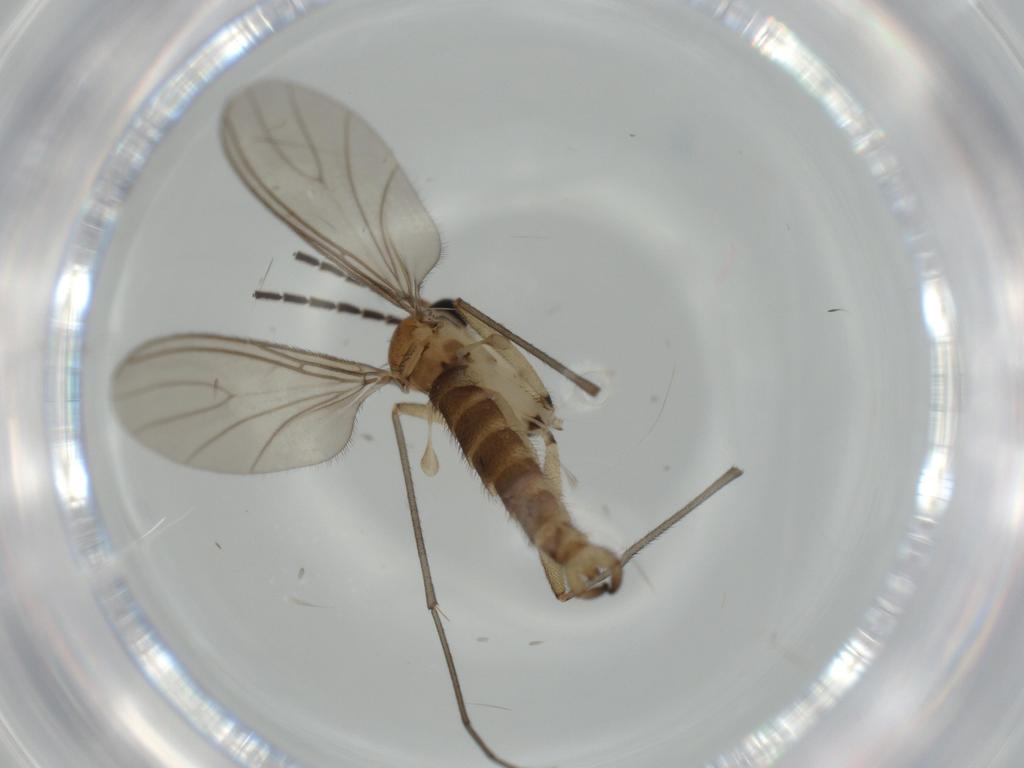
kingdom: Animalia
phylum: Arthropoda
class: Insecta
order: Diptera
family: Sciaridae
